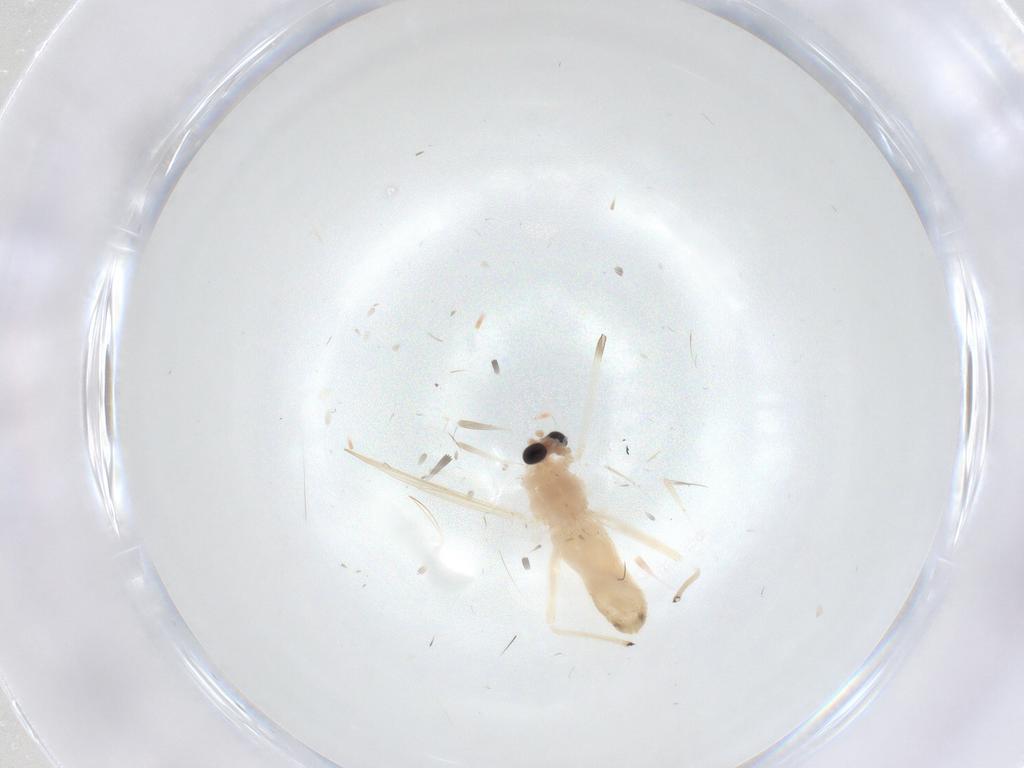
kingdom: Animalia
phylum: Arthropoda
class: Insecta
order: Diptera
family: Chironomidae
